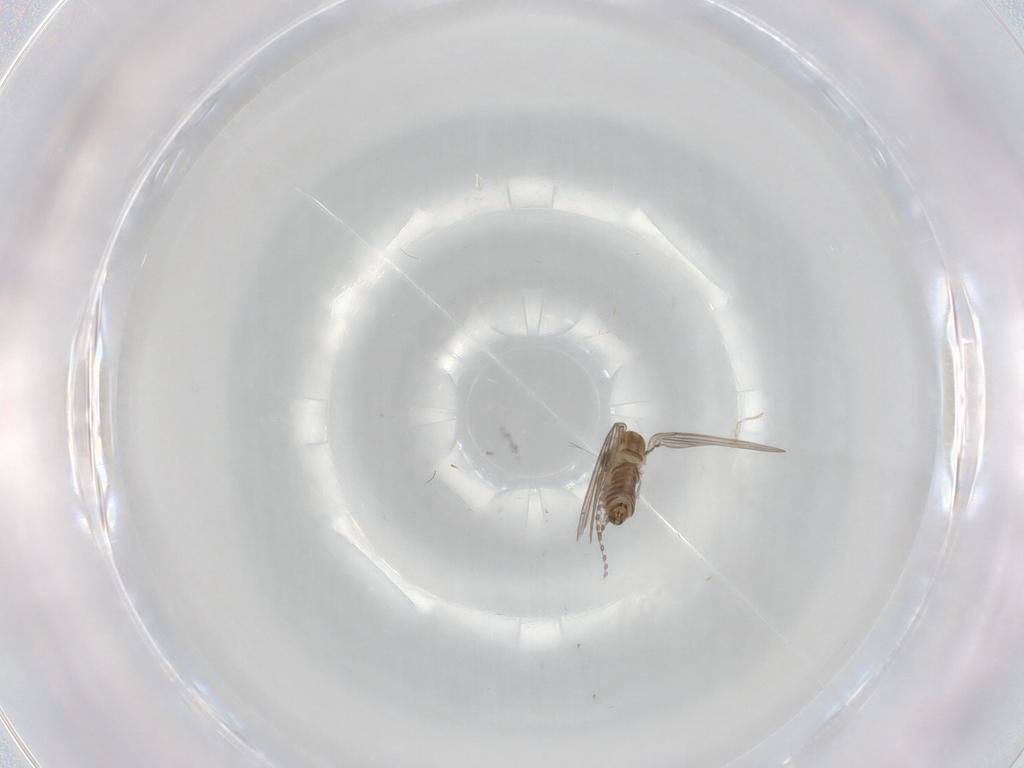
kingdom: Animalia
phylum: Arthropoda
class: Insecta
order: Diptera
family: Cecidomyiidae
